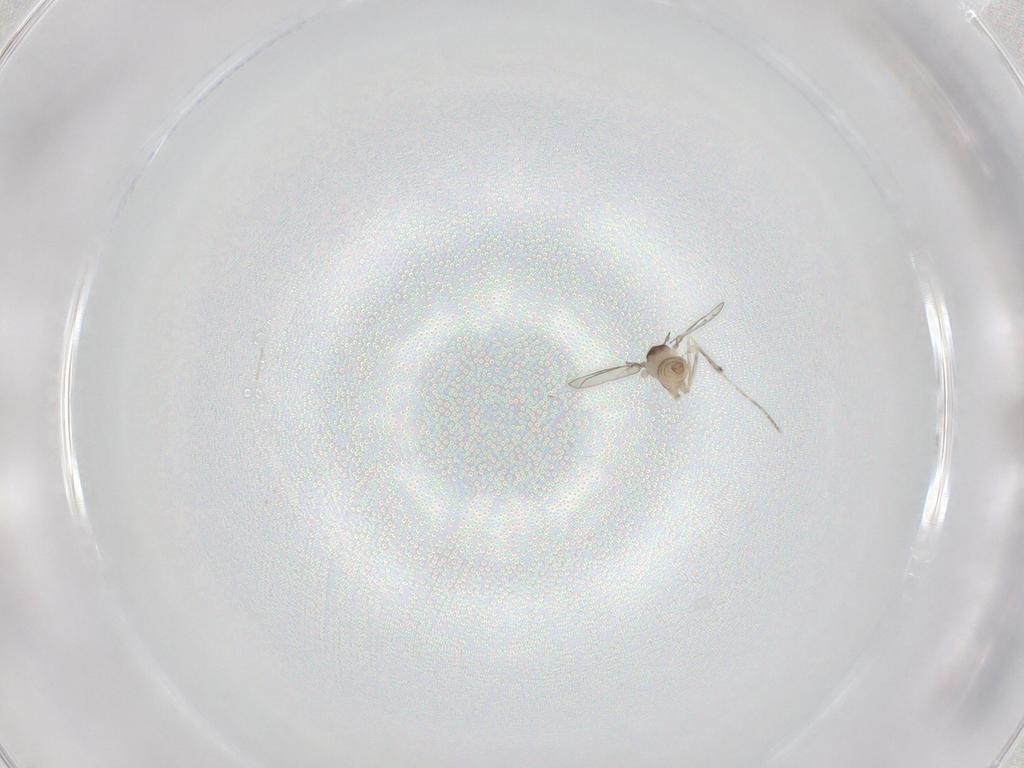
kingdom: Animalia
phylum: Arthropoda
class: Insecta
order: Diptera
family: Cecidomyiidae
